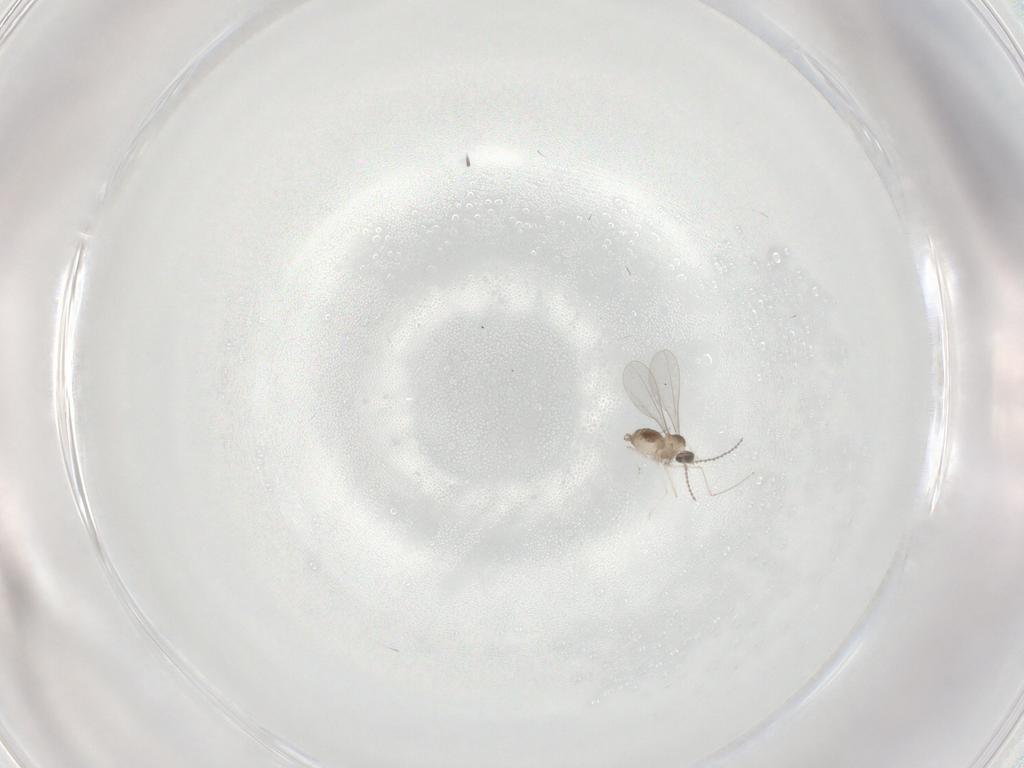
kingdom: Animalia
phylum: Arthropoda
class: Insecta
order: Diptera
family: Cecidomyiidae
